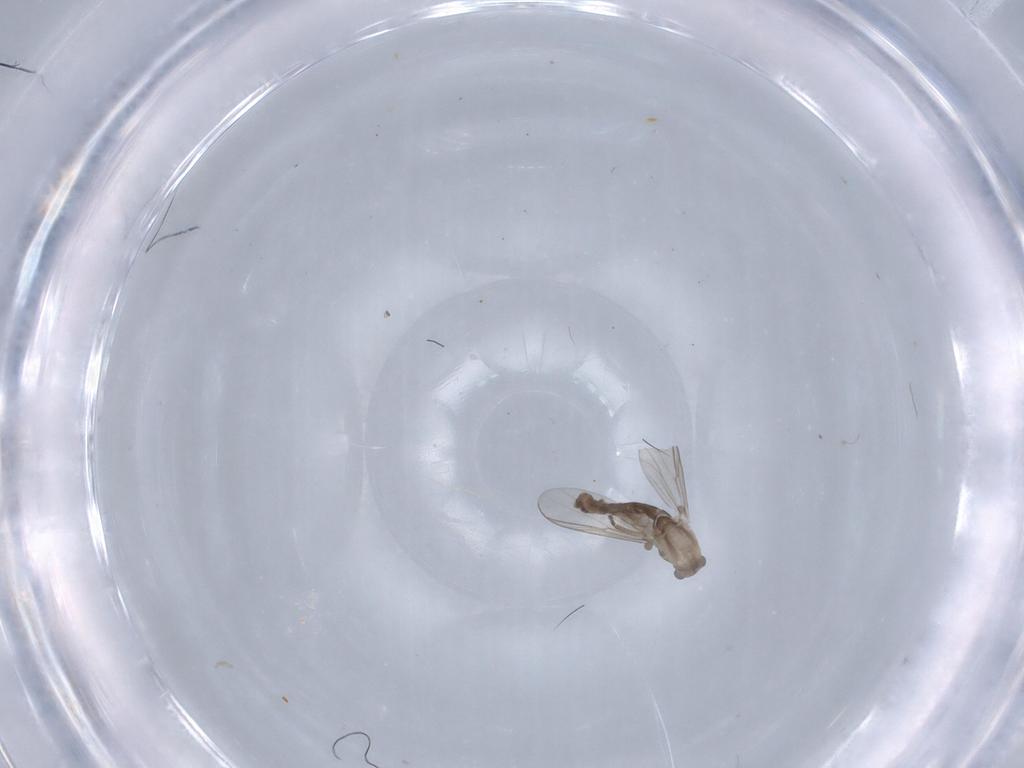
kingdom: Animalia
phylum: Arthropoda
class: Insecta
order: Diptera
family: Chironomidae
